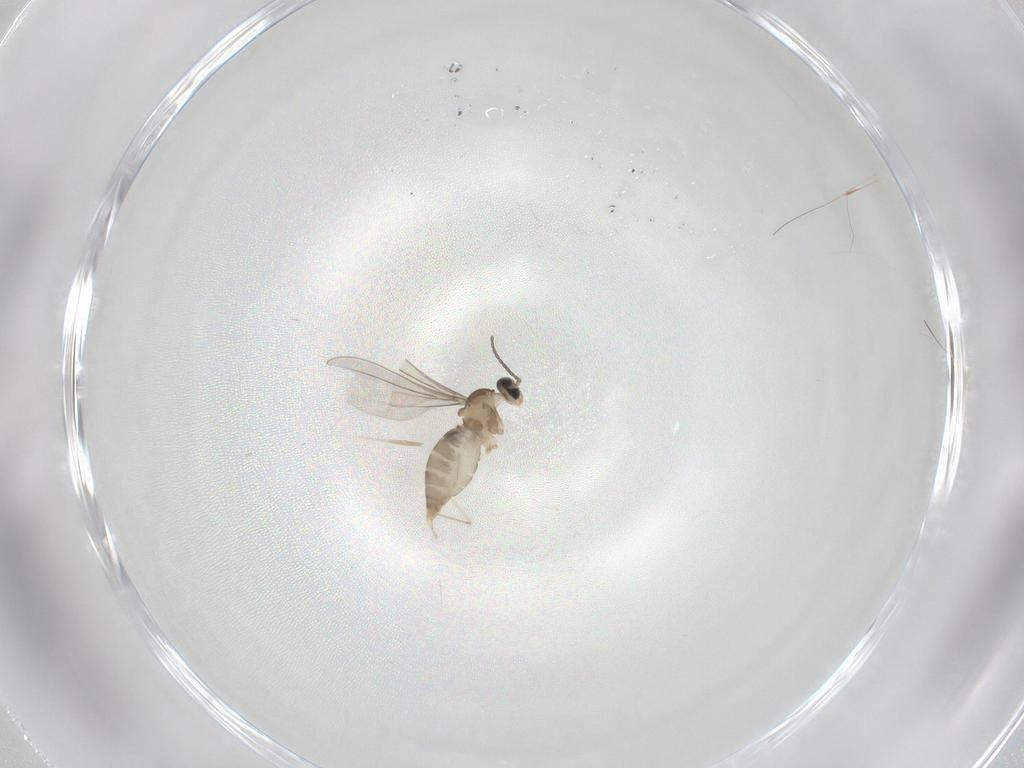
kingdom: Animalia
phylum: Arthropoda
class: Insecta
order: Diptera
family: Cecidomyiidae
